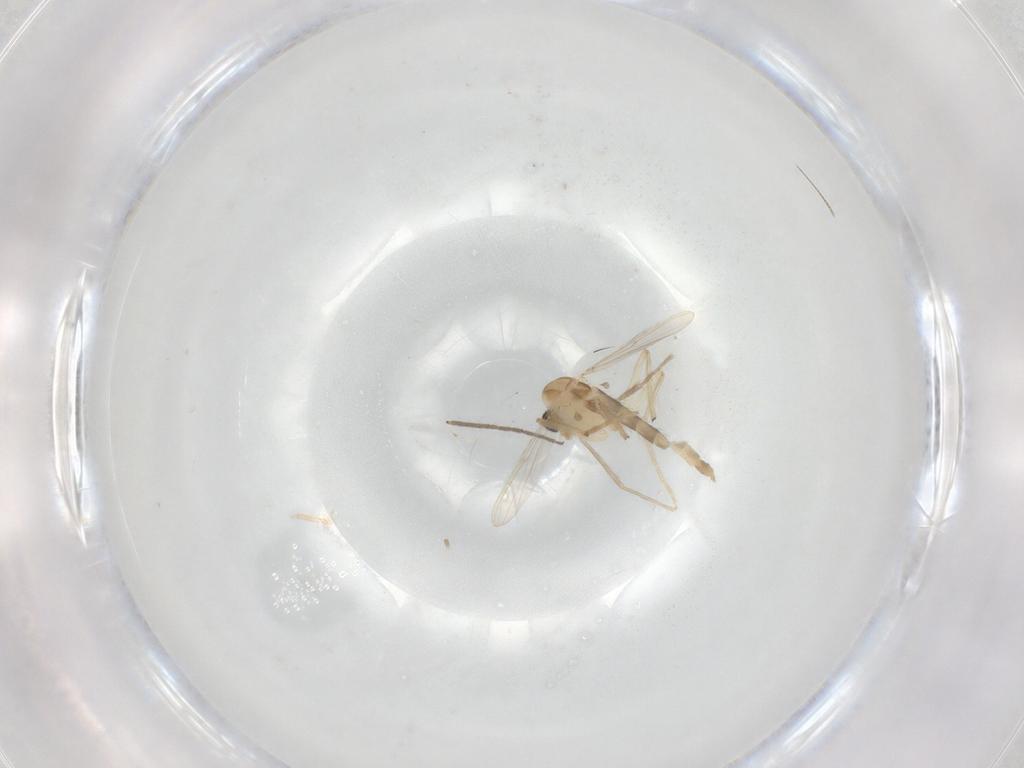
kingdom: Animalia
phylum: Arthropoda
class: Insecta
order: Diptera
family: Chironomidae
